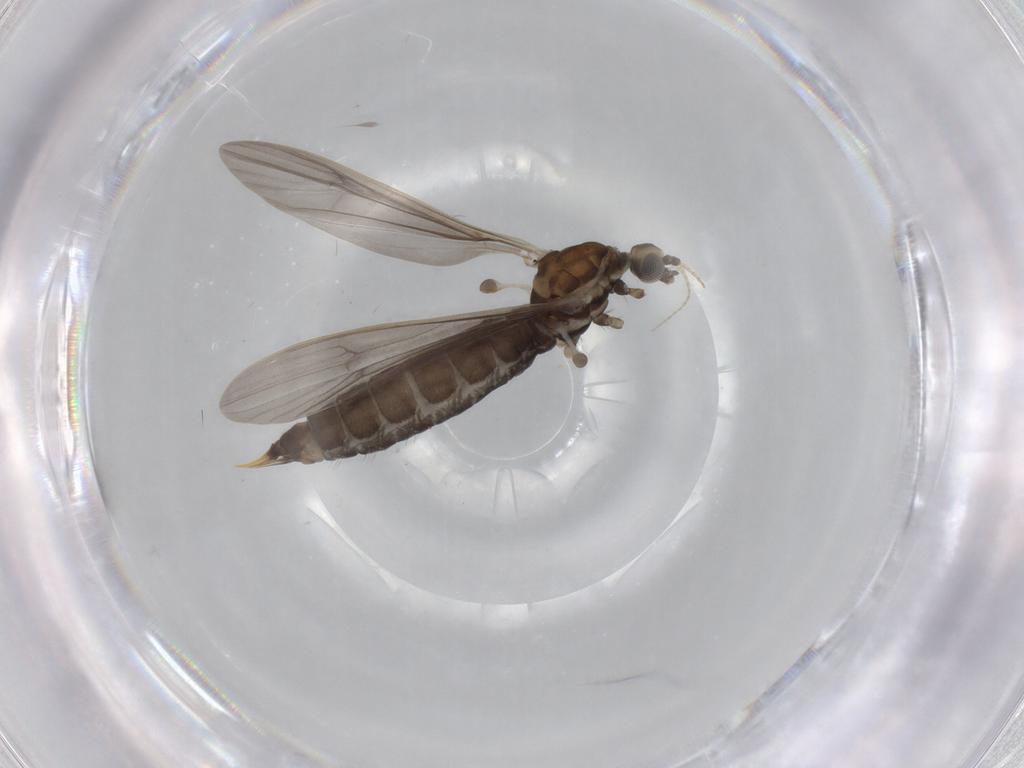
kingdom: Animalia
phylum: Arthropoda
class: Insecta
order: Diptera
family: Limoniidae
